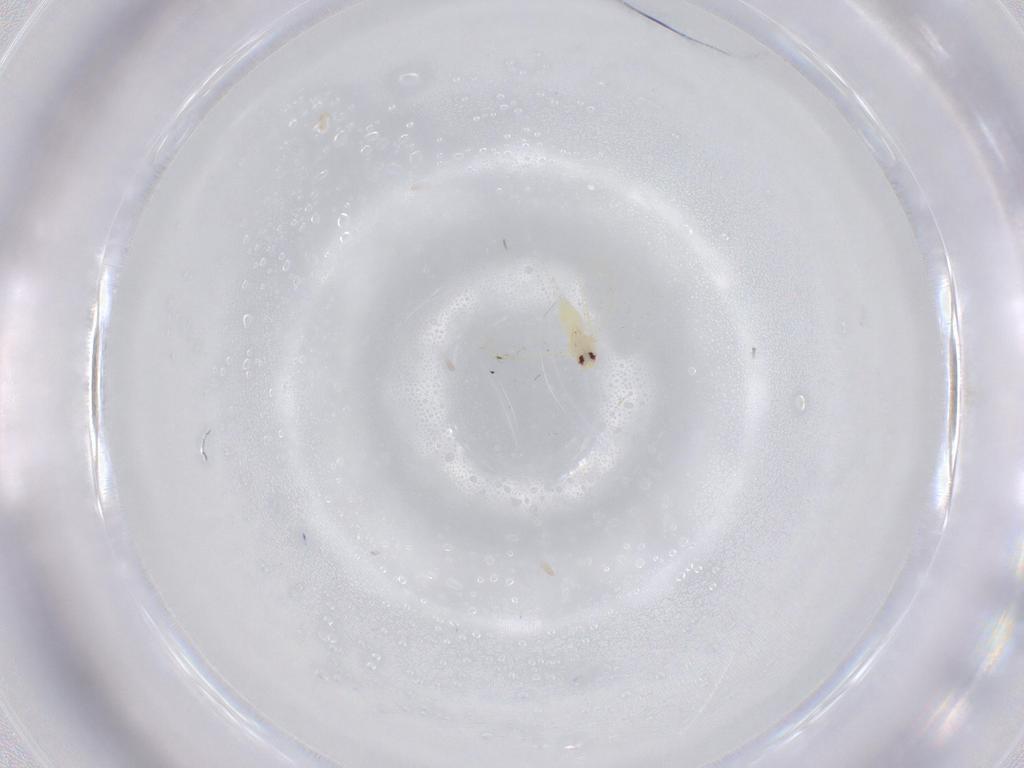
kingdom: Animalia
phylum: Arthropoda
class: Insecta
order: Hemiptera
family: Aleyrodidae
